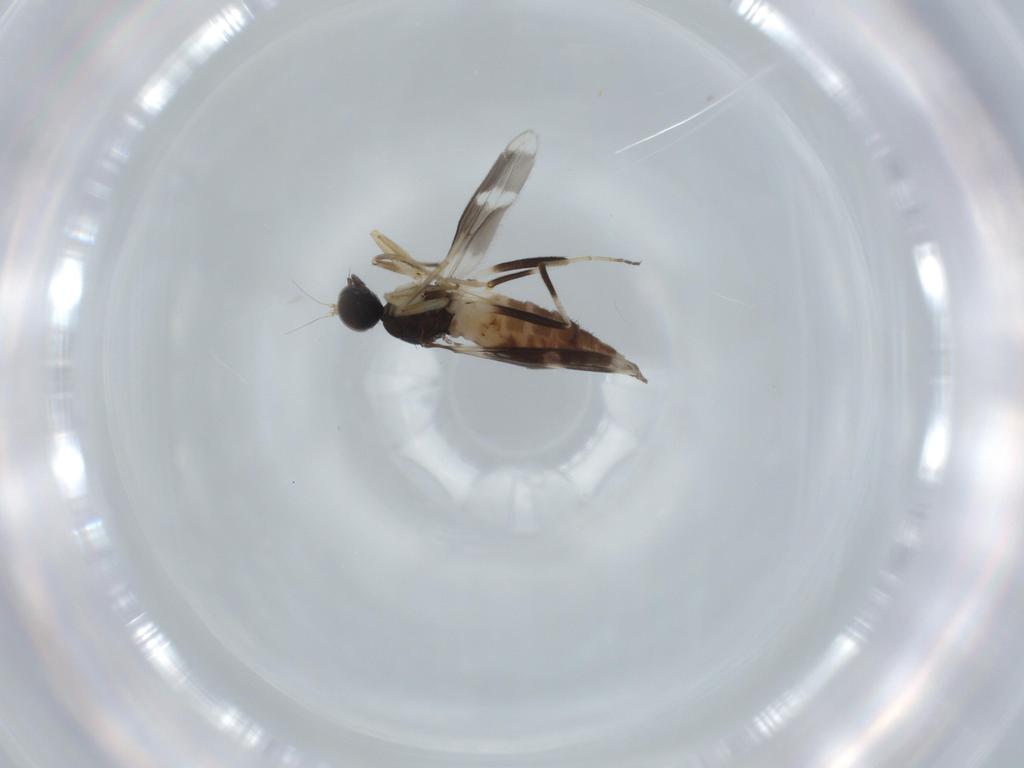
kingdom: Animalia
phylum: Arthropoda
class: Insecta
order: Diptera
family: Hybotidae
